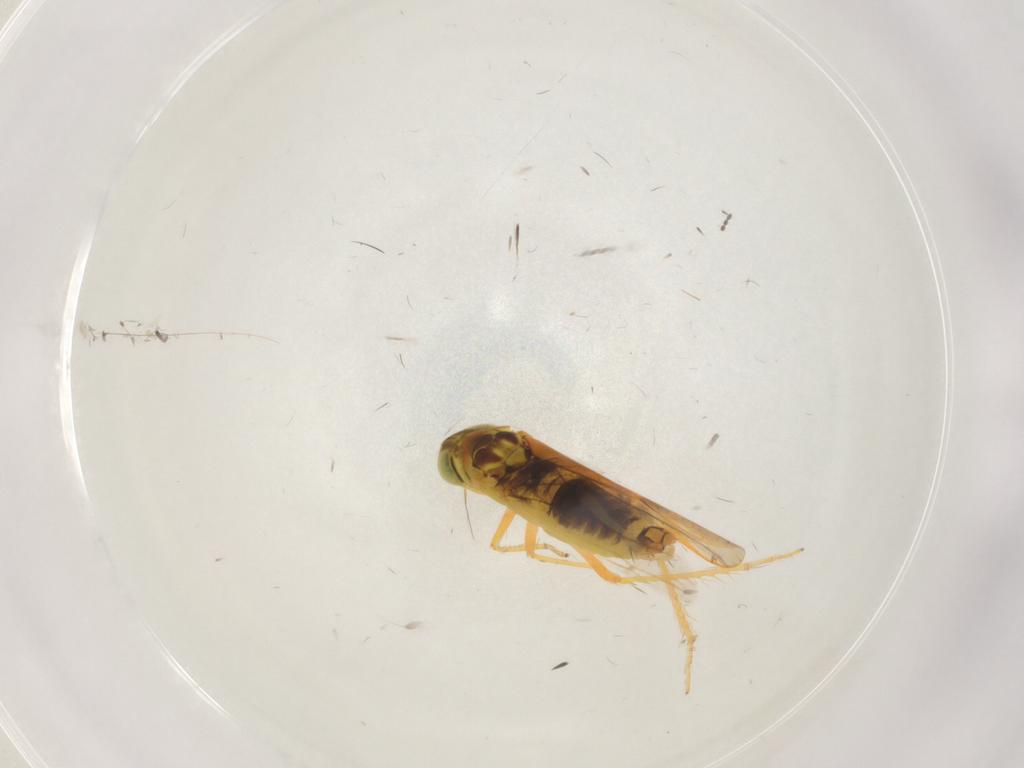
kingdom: Animalia
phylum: Arthropoda
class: Insecta
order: Hemiptera
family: Cicadellidae
